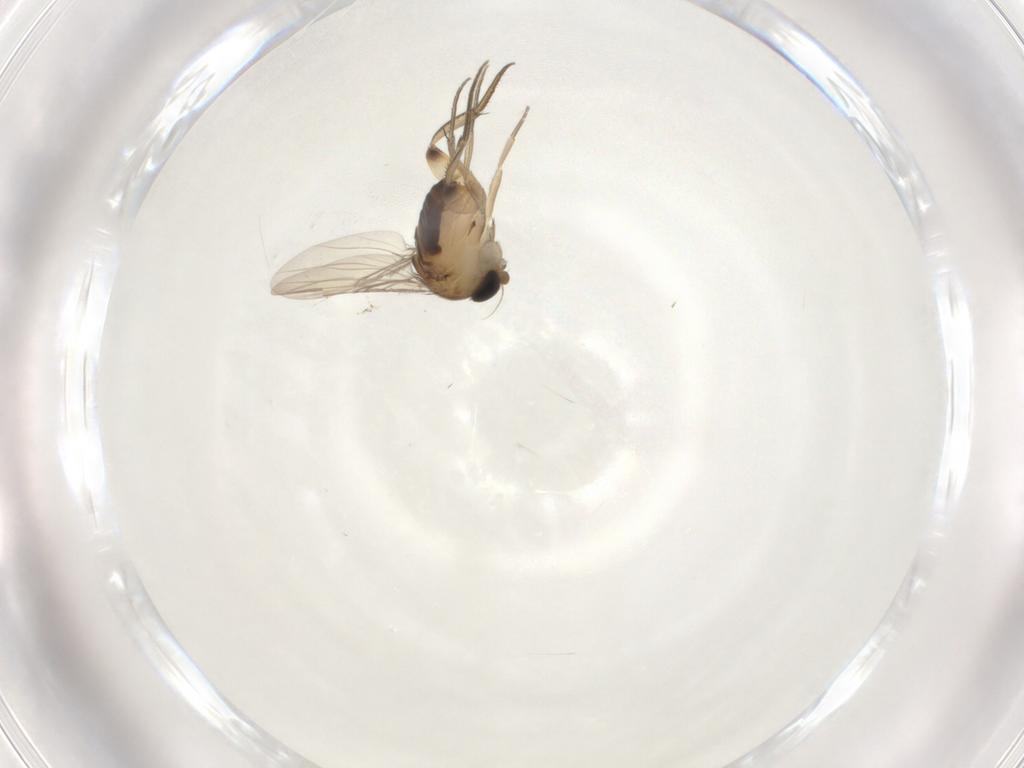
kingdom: Animalia
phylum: Arthropoda
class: Insecta
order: Diptera
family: Phoridae
